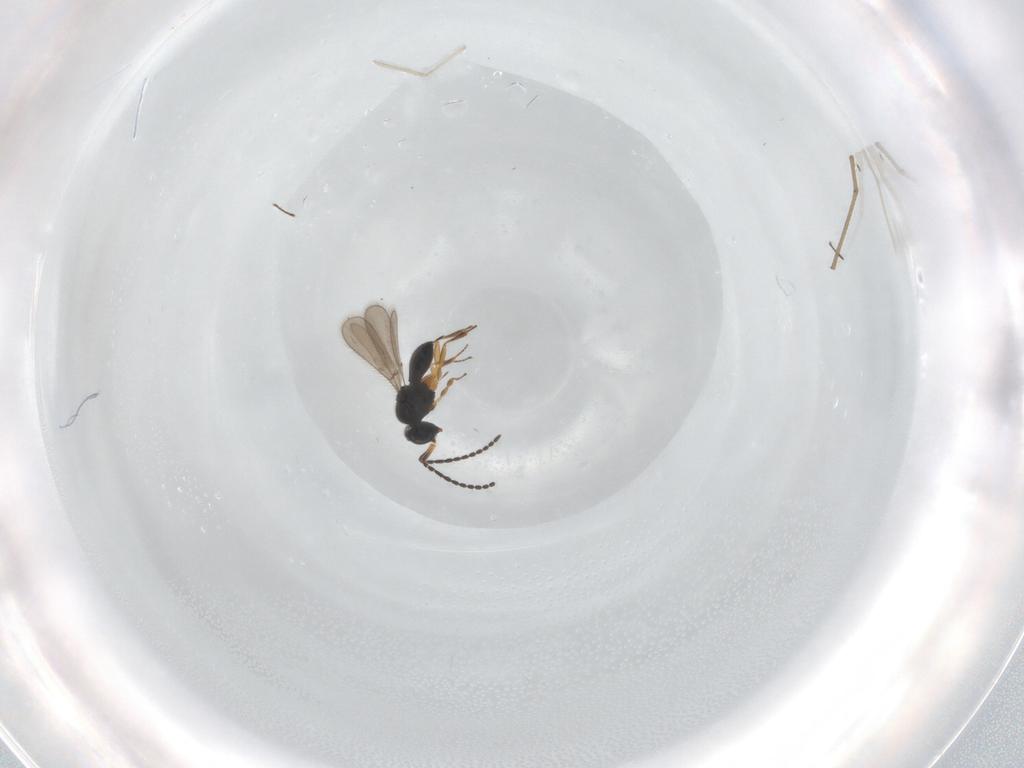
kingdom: Animalia
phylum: Arthropoda
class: Insecta
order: Hymenoptera
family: Scelionidae
